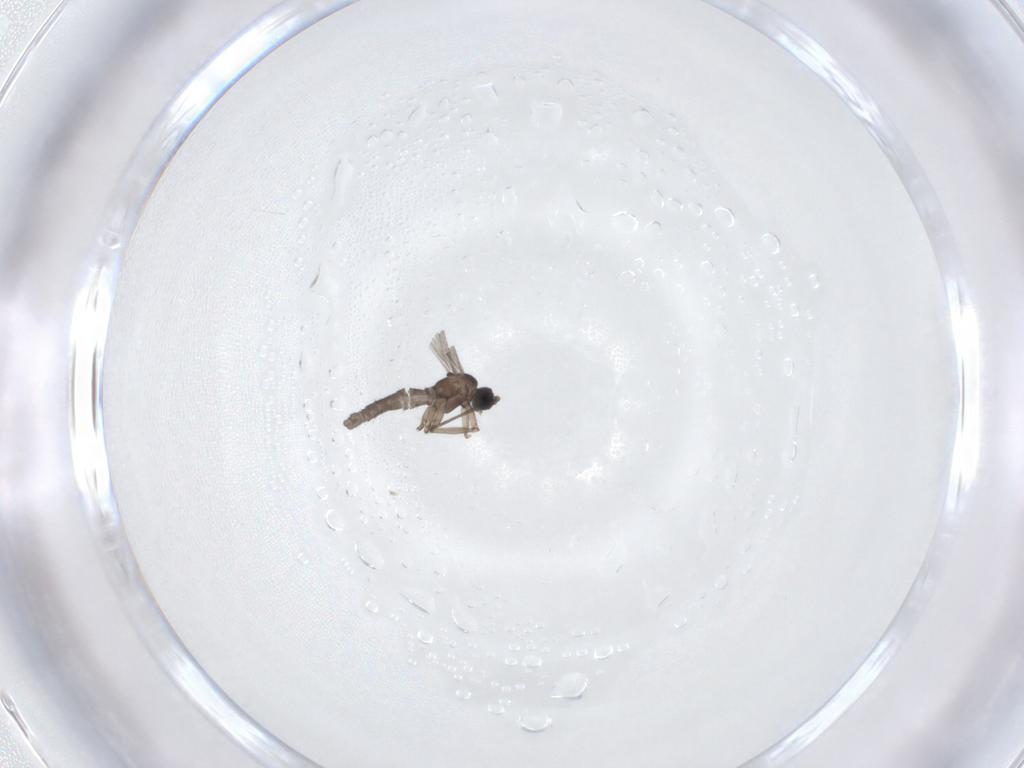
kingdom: Animalia
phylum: Arthropoda
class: Insecta
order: Diptera
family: Sciaridae
